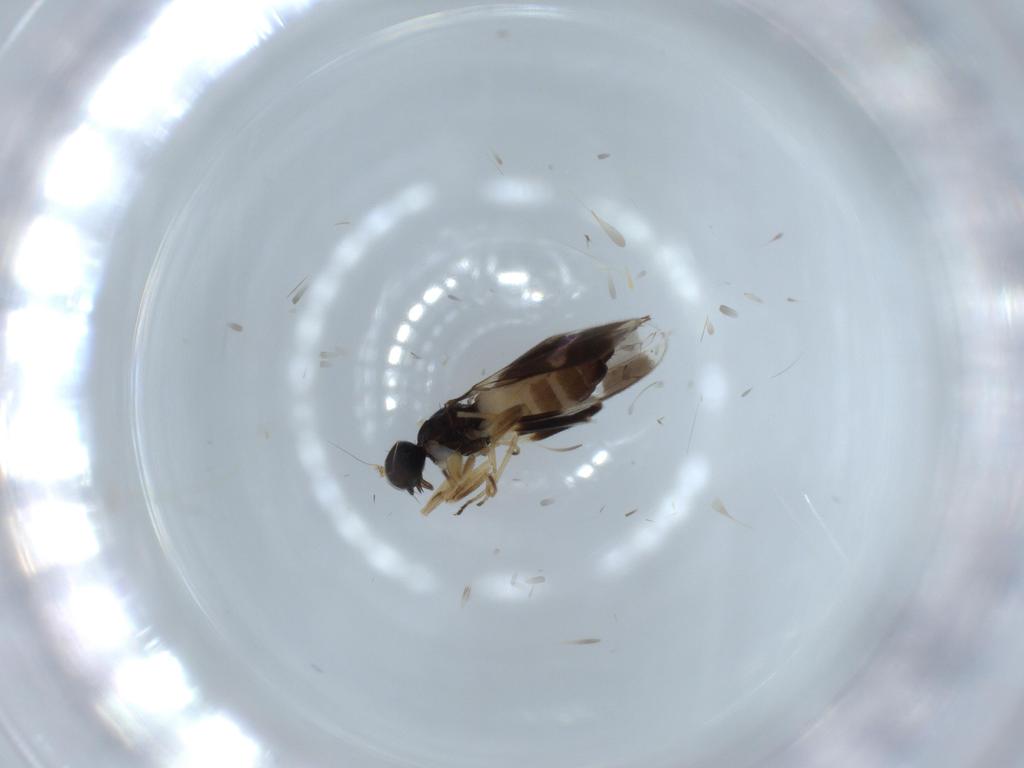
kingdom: Animalia
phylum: Arthropoda
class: Insecta
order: Diptera
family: Hybotidae
